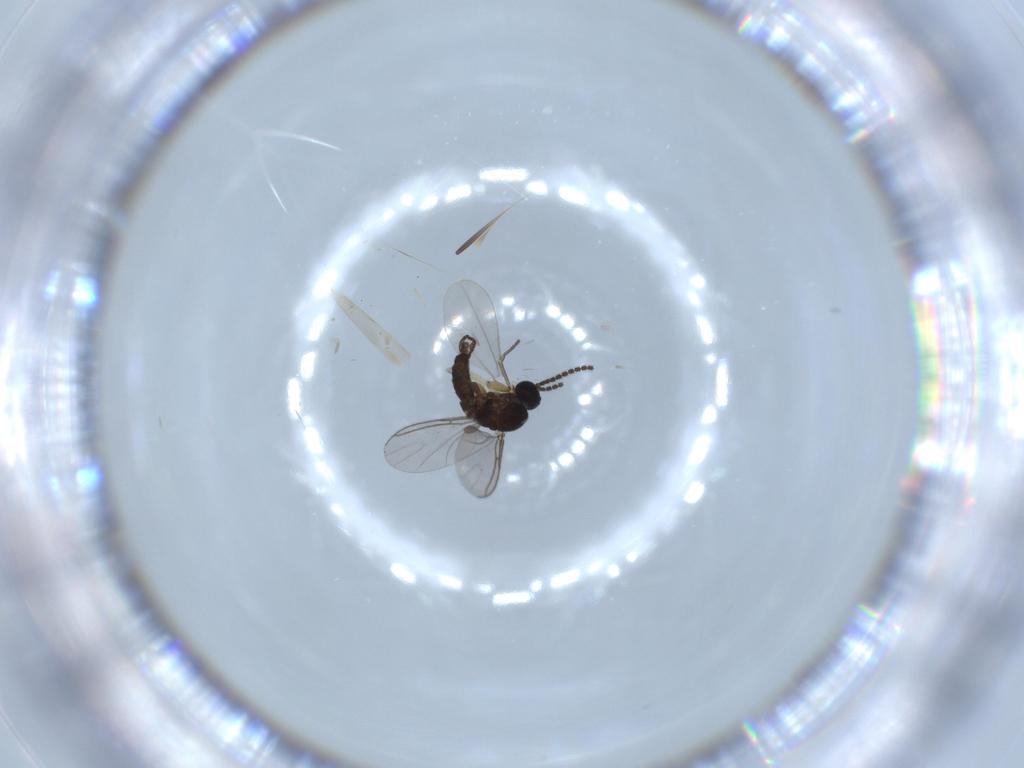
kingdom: Animalia
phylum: Arthropoda
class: Insecta
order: Diptera
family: Sciaridae
